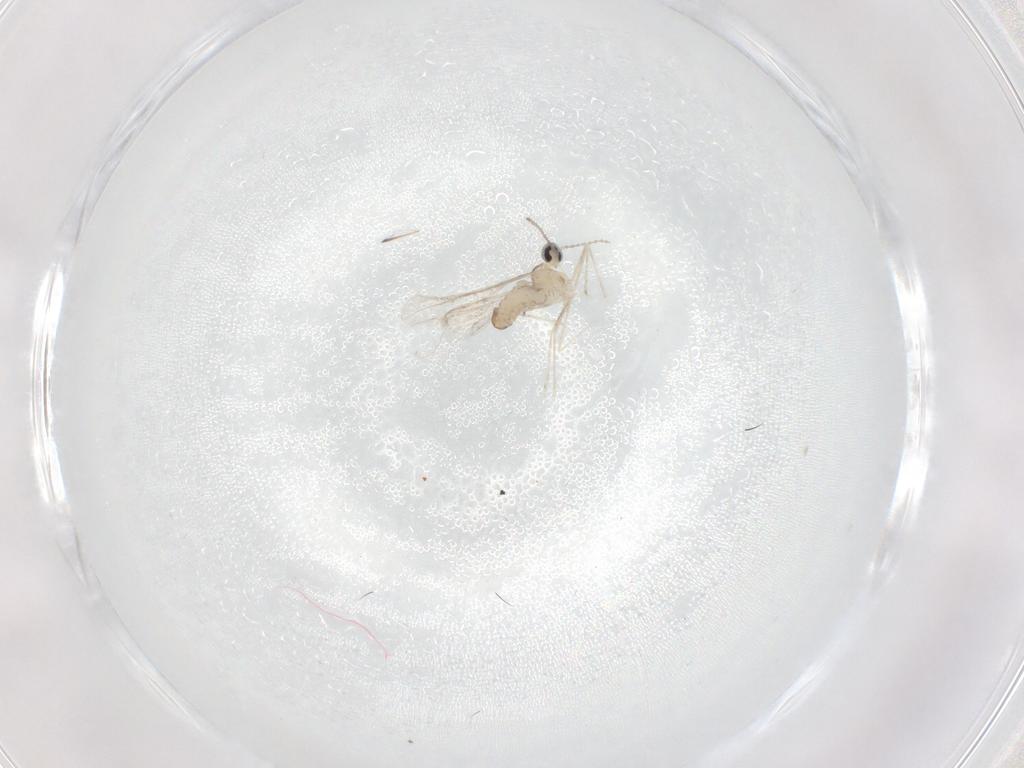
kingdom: Animalia
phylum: Arthropoda
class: Insecta
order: Diptera
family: Cecidomyiidae
